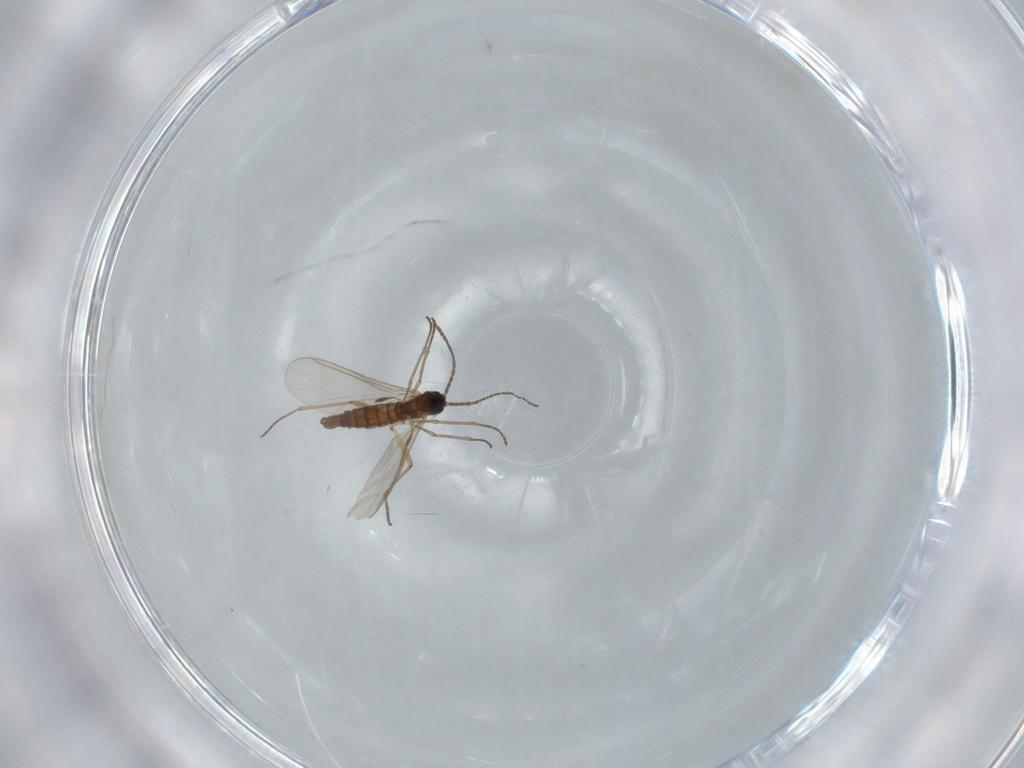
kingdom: Animalia
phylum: Arthropoda
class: Insecta
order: Diptera
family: Sciaridae
